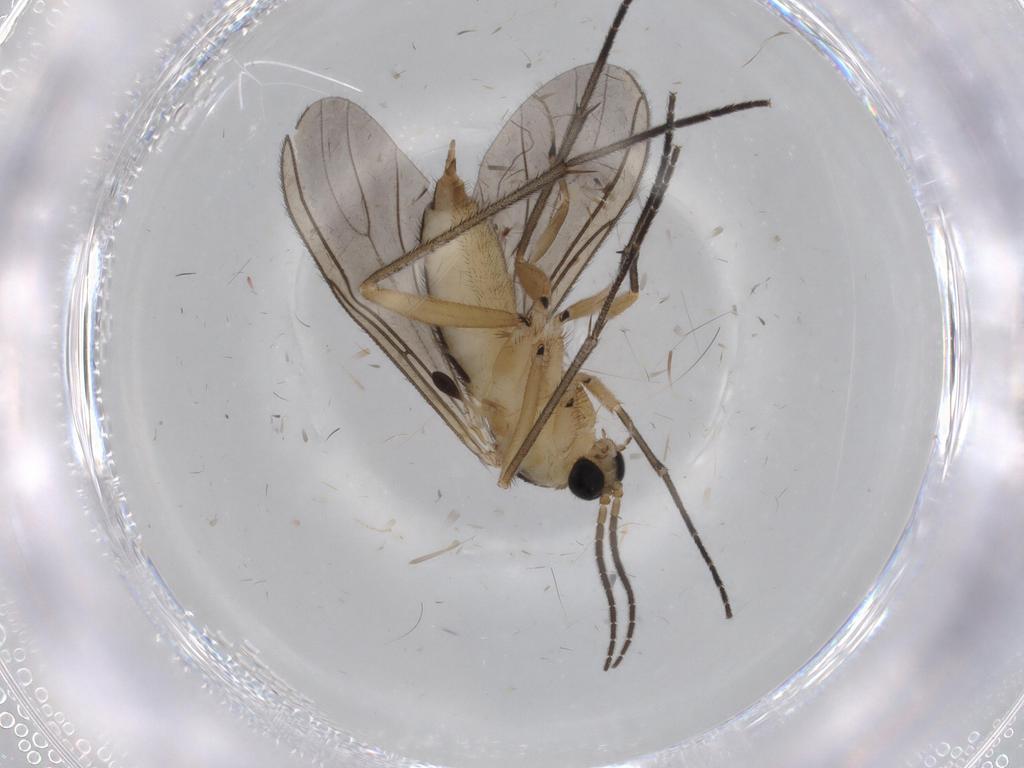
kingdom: Animalia
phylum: Arthropoda
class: Insecta
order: Diptera
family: Sciaridae
